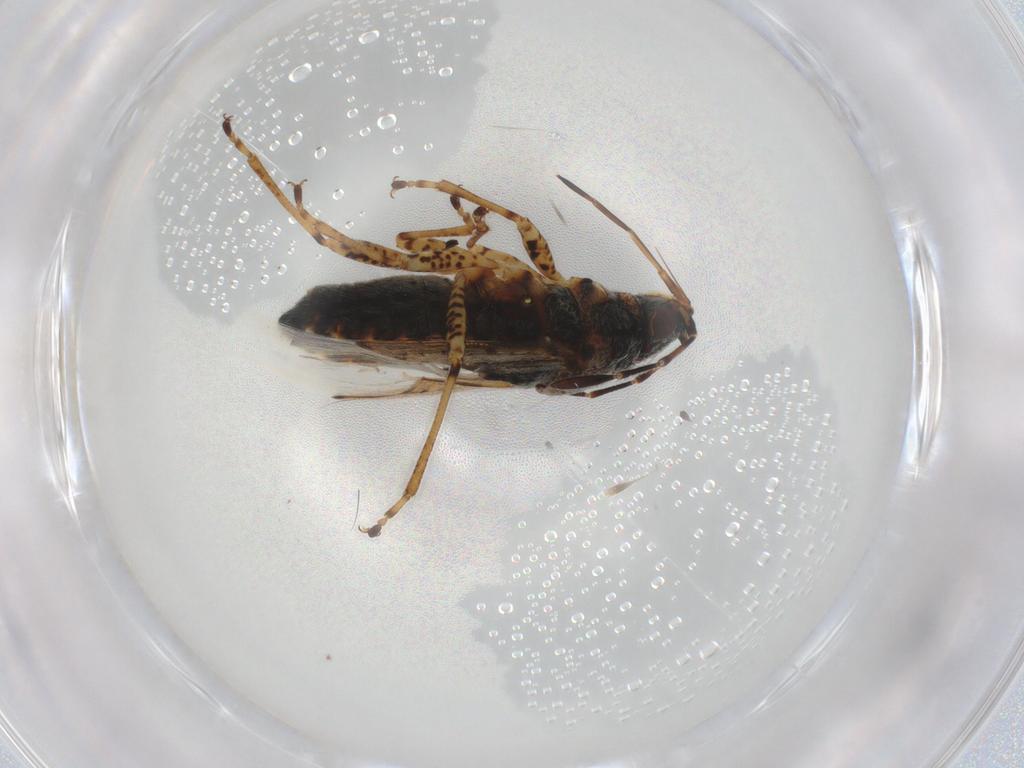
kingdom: Animalia
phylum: Arthropoda
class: Insecta
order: Hemiptera
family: Lygaeidae
